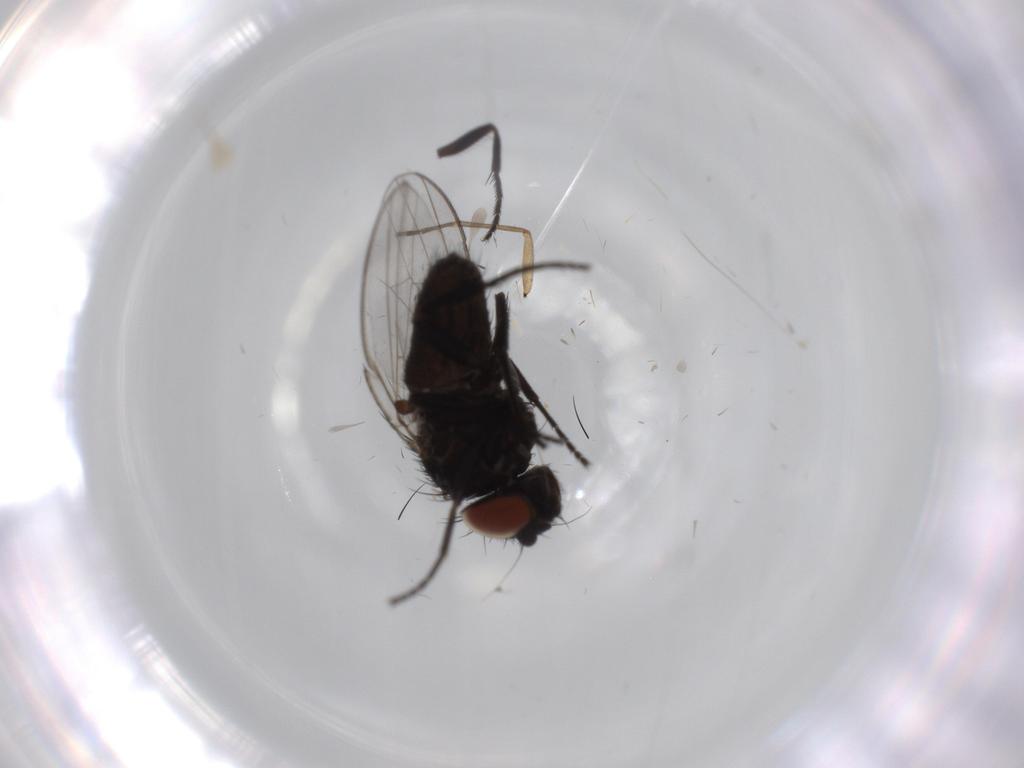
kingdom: Animalia
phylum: Arthropoda
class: Insecta
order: Diptera
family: Milichiidae
